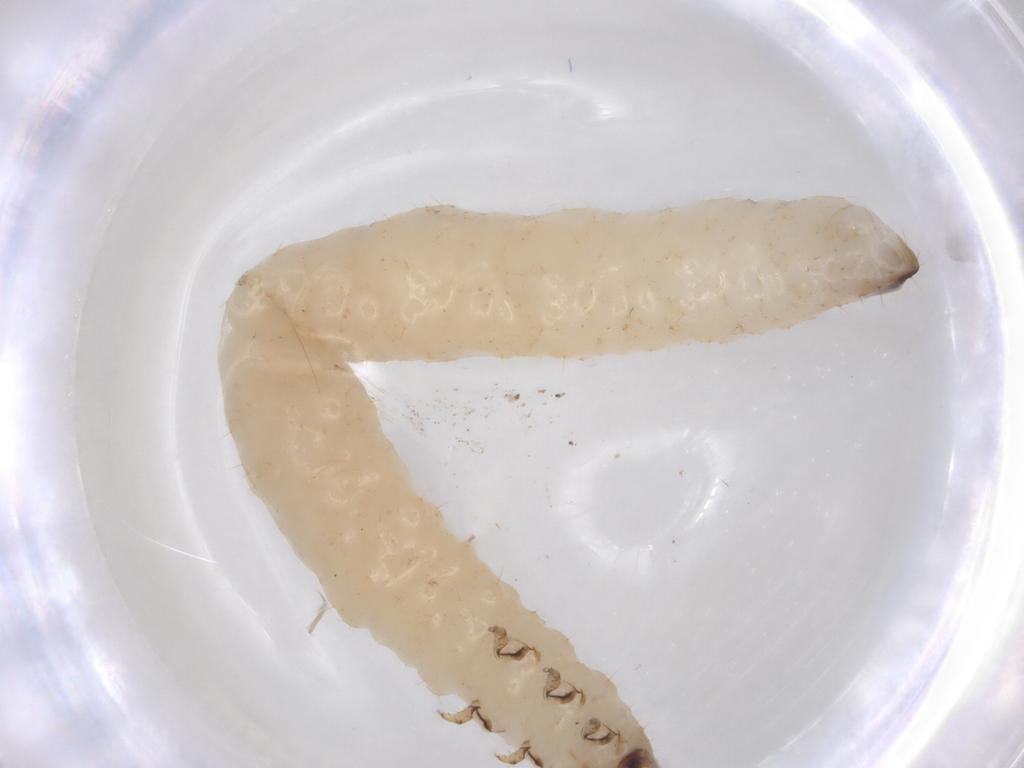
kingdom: Animalia
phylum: Arthropoda
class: Insecta
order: Coleoptera
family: Chrysomelidae
